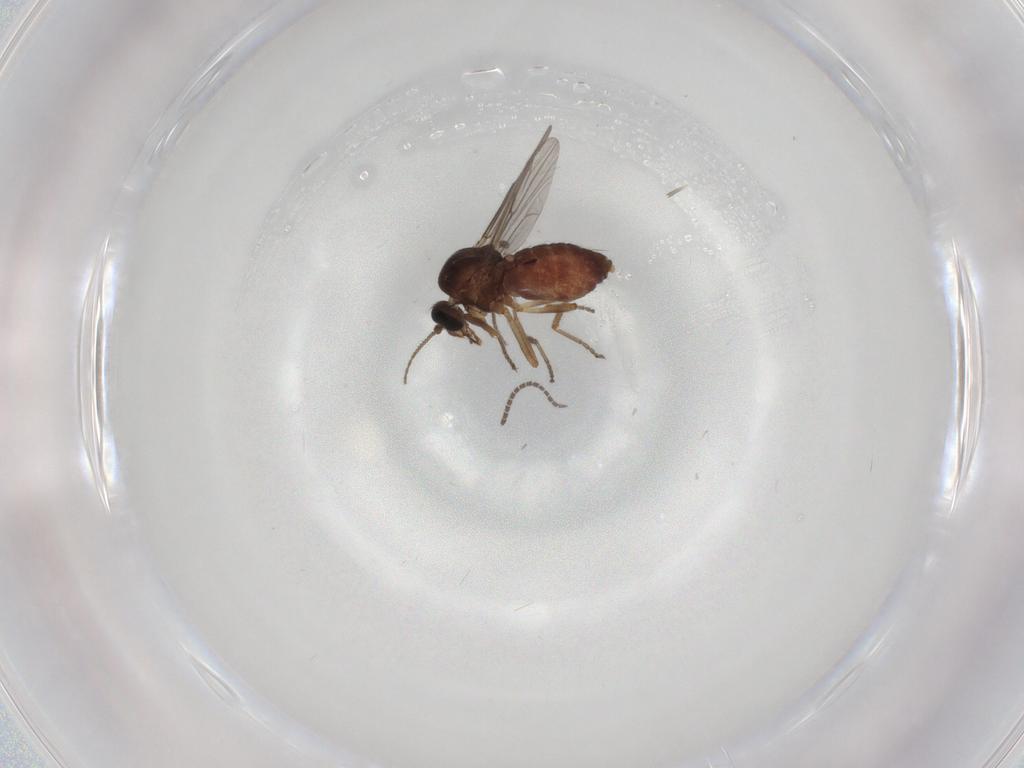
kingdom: Animalia
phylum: Arthropoda
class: Insecta
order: Diptera
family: Ceratopogonidae
